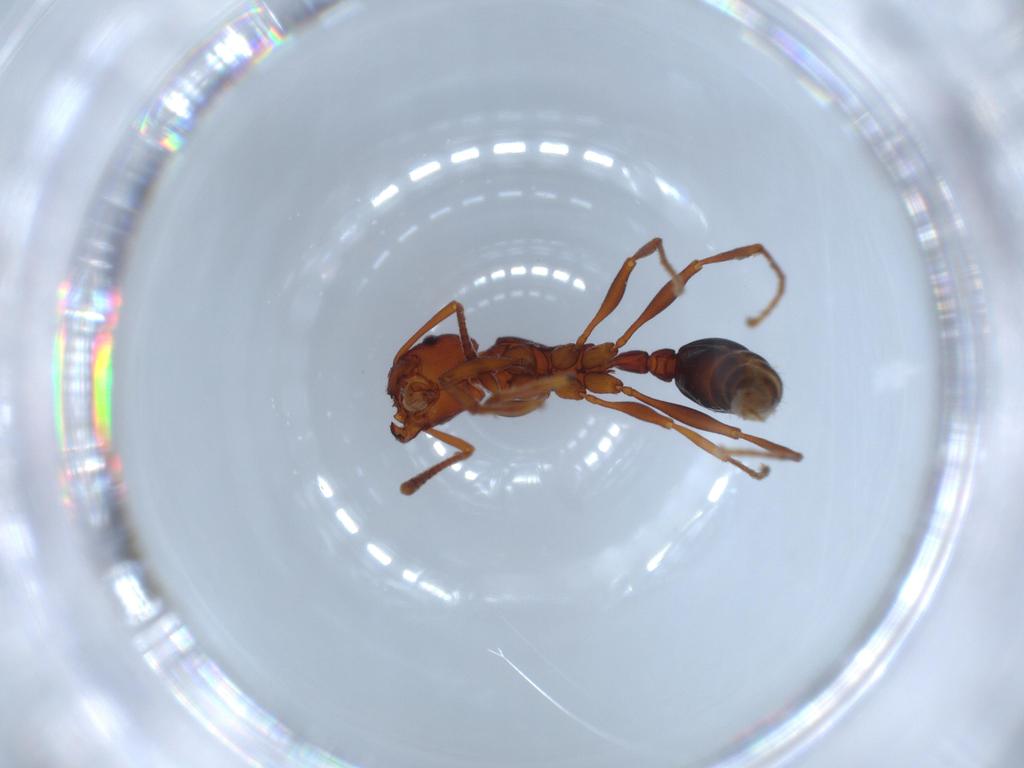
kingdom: Animalia
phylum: Arthropoda
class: Insecta
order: Hymenoptera
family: Formicidae
